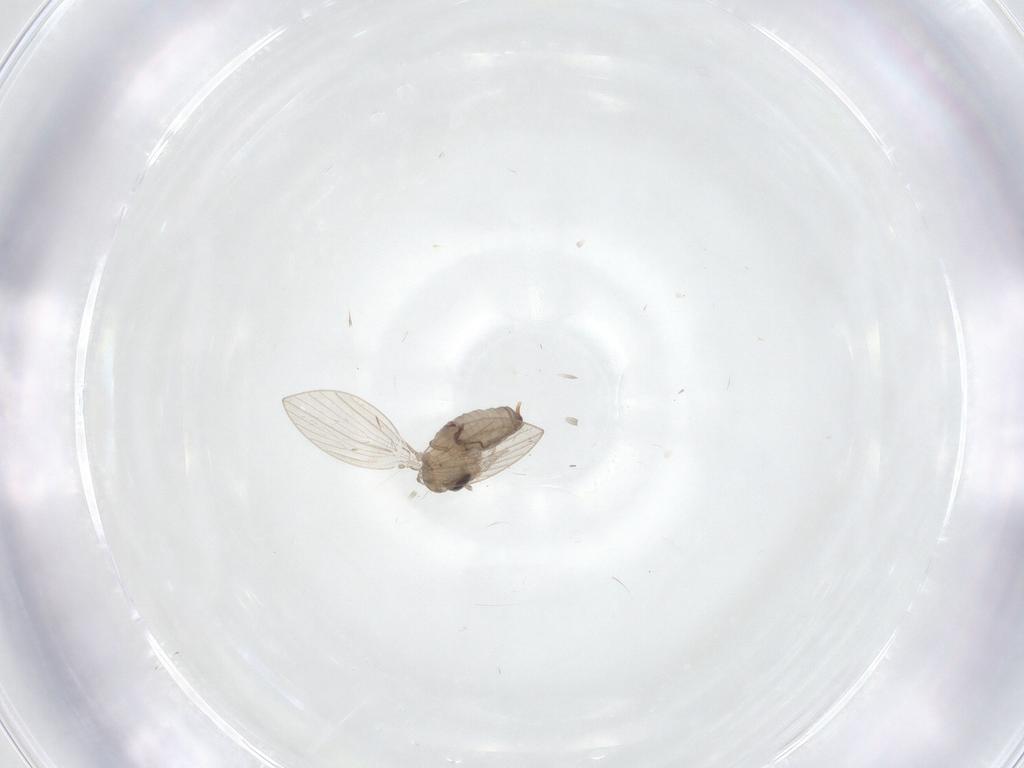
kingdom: Animalia
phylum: Arthropoda
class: Insecta
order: Diptera
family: Psychodidae
